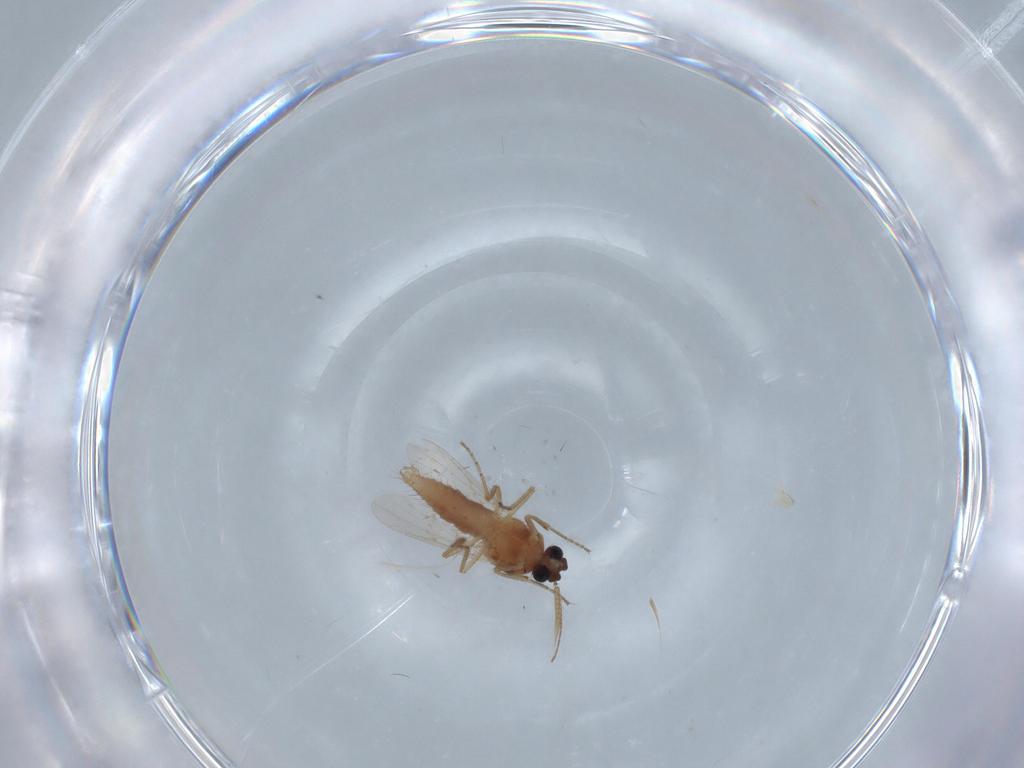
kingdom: Animalia
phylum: Arthropoda
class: Insecta
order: Diptera
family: Ceratopogonidae
